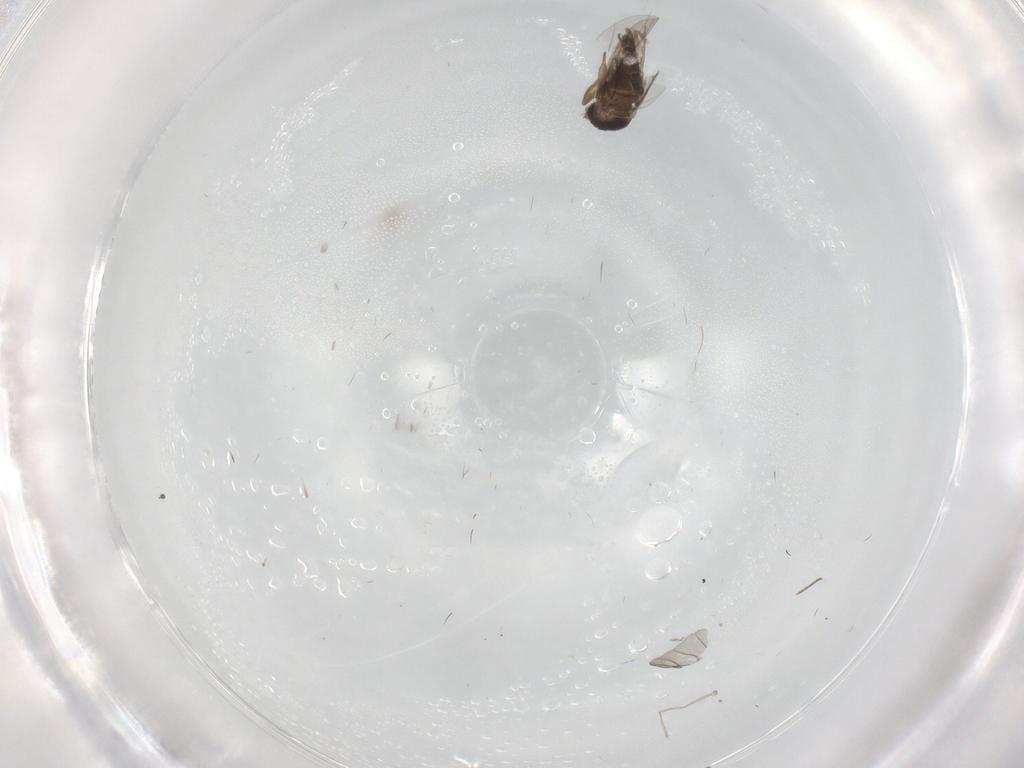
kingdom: Animalia
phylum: Arthropoda
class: Insecta
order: Diptera
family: Phoridae
